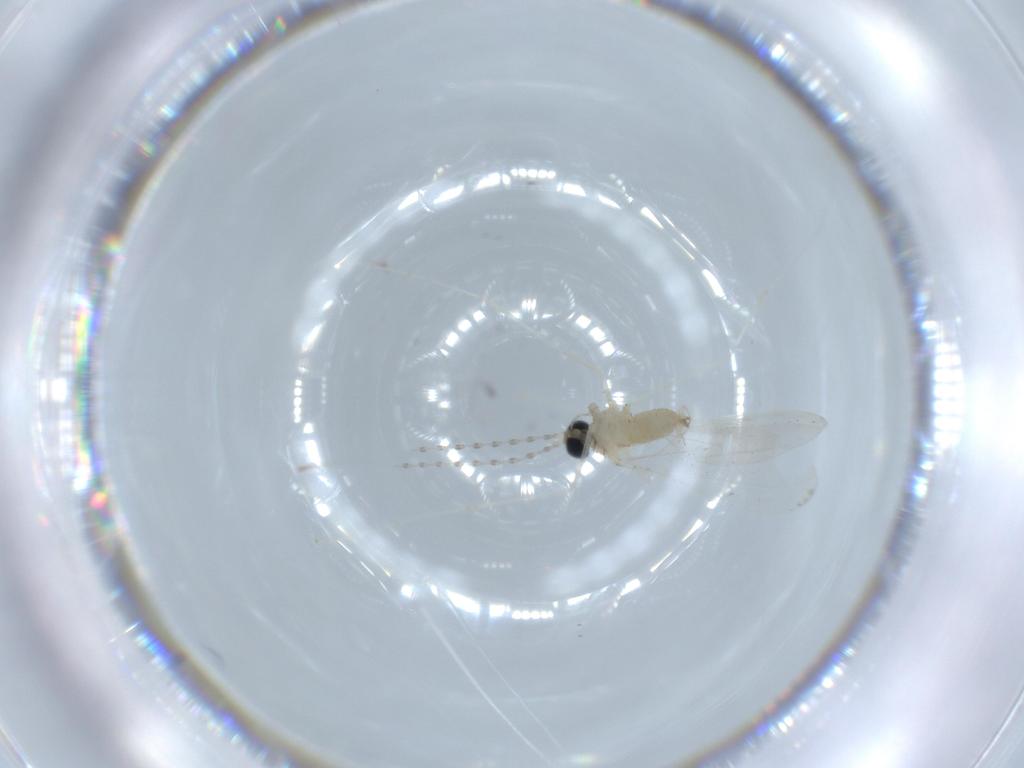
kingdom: Animalia
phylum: Arthropoda
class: Insecta
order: Diptera
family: Cecidomyiidae
